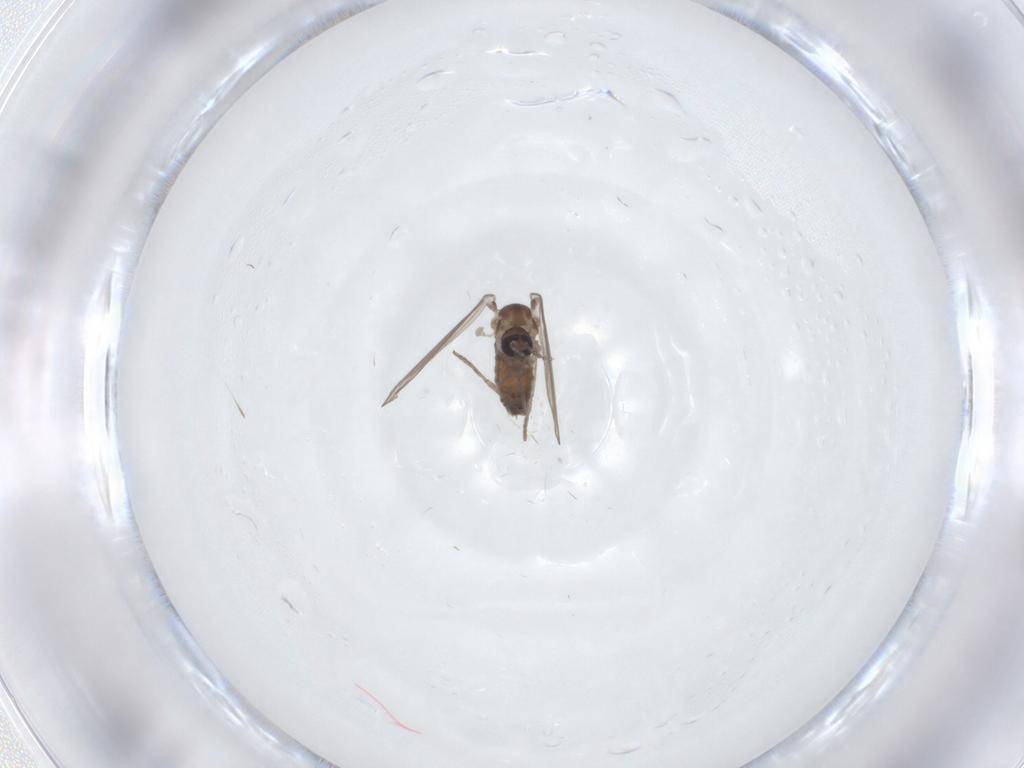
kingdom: Animalia
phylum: Arthropoda
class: Insecta
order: Diptera
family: Psychodidae
